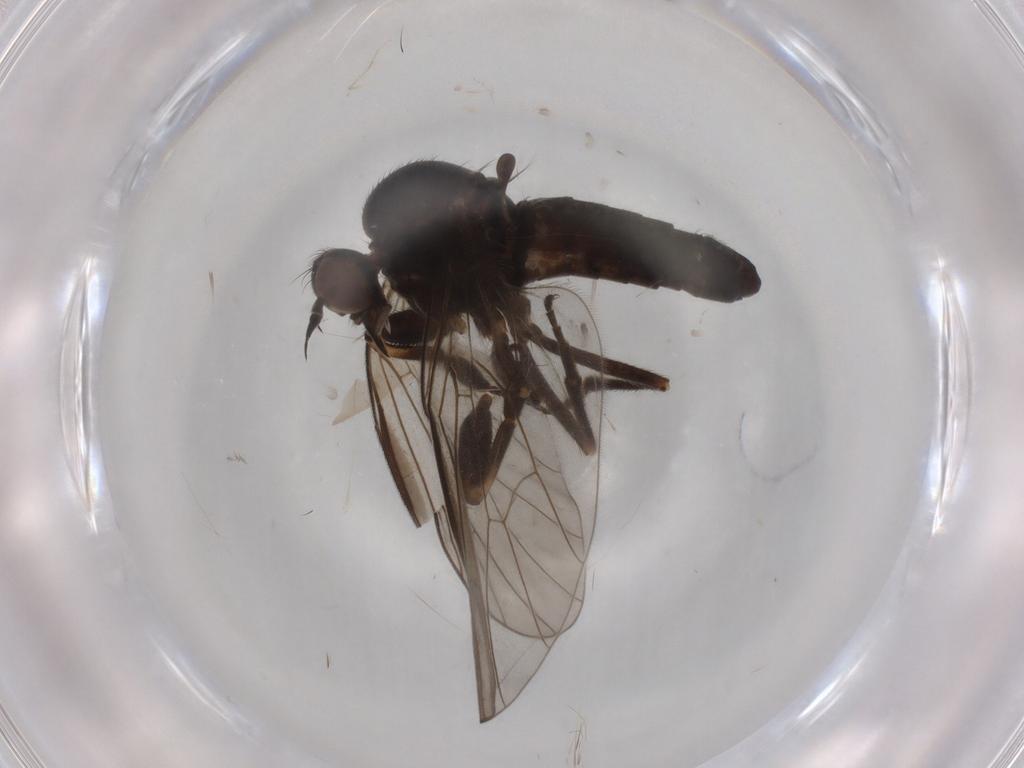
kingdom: Animalia
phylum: Arthropoda
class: Insecta
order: Diptera
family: Empididae
